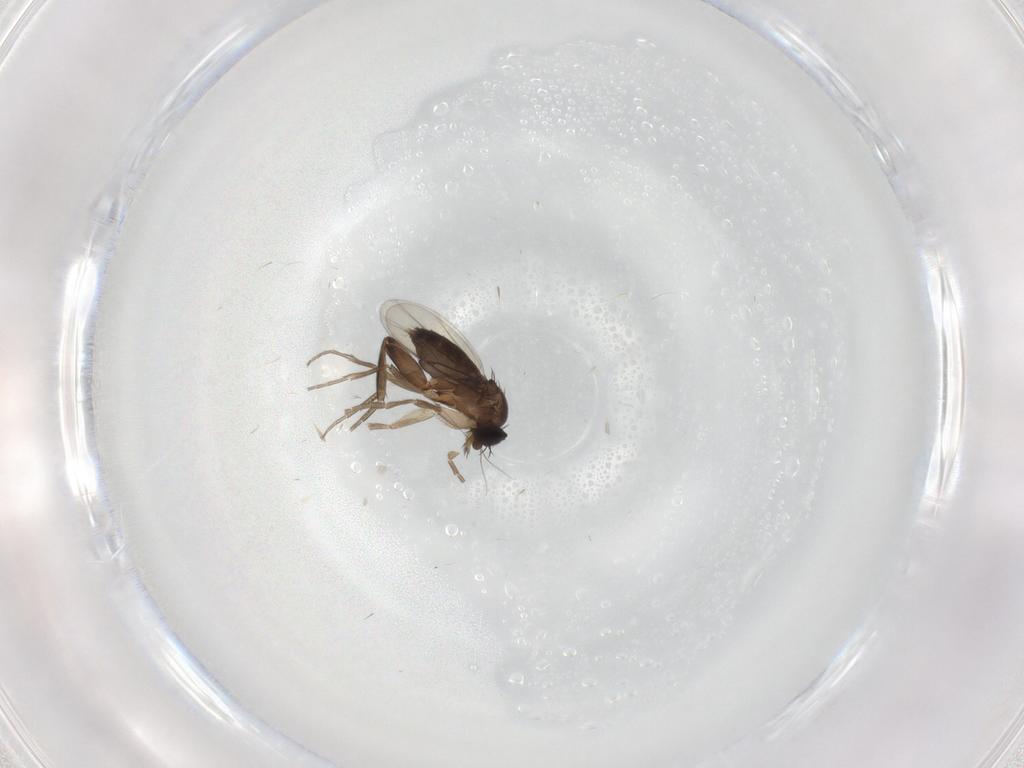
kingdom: Animalia
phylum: Arthropoda
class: Insecta
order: Diptera
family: Phoridae
